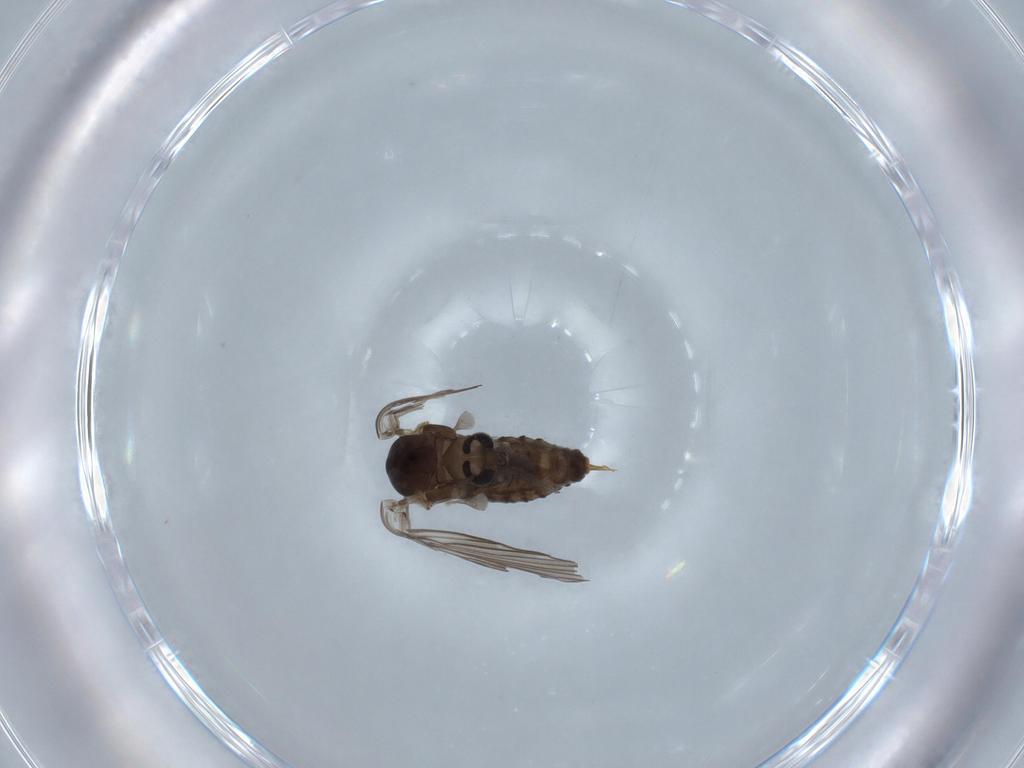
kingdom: Animalia
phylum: Arthropoda
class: Insecta
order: Diptera
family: Psychodidae
